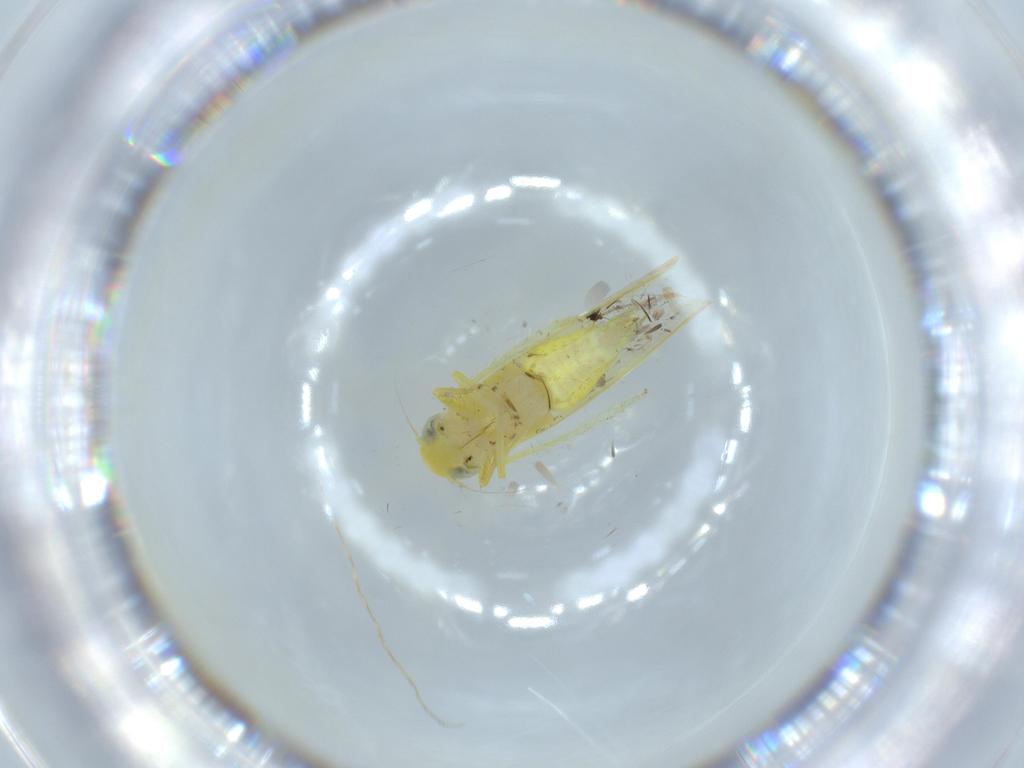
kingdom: Animalia
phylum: Arthropoda
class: Insecta
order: Hemiptera
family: Cicadellidae
